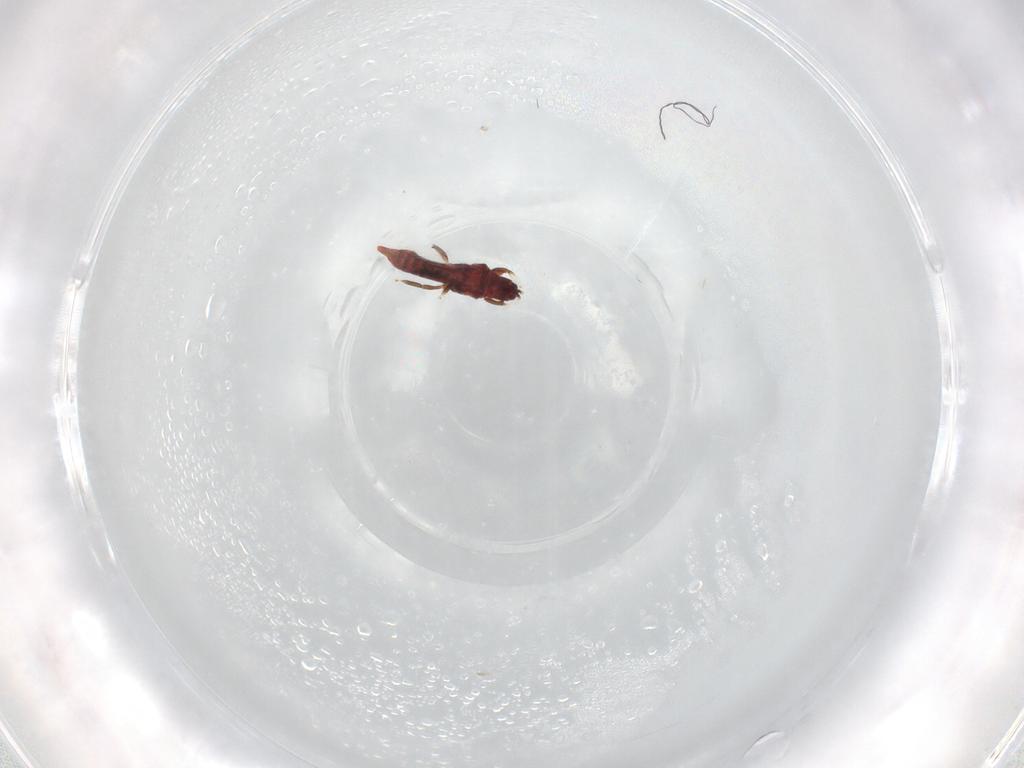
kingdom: Animalia
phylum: Arthropoda
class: Insecta
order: Thysanoptera
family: Phlaeothripidae
